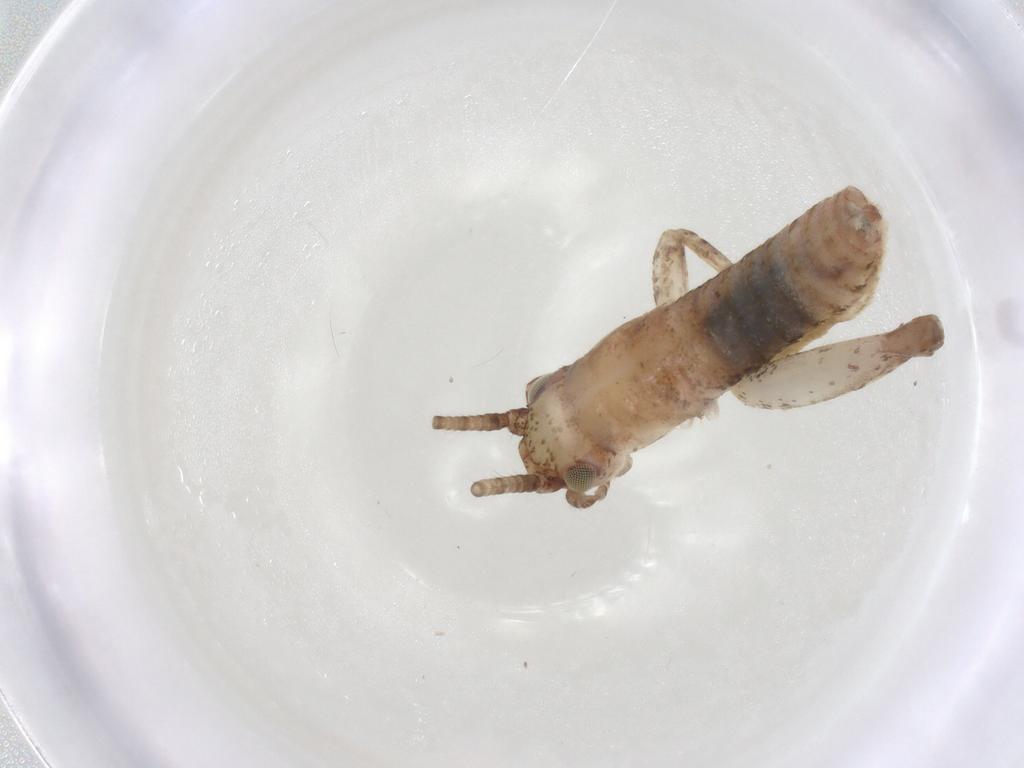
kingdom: Animalia
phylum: Arthropoda
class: Insecta
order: Orthoptera
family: Mogoplistidae
